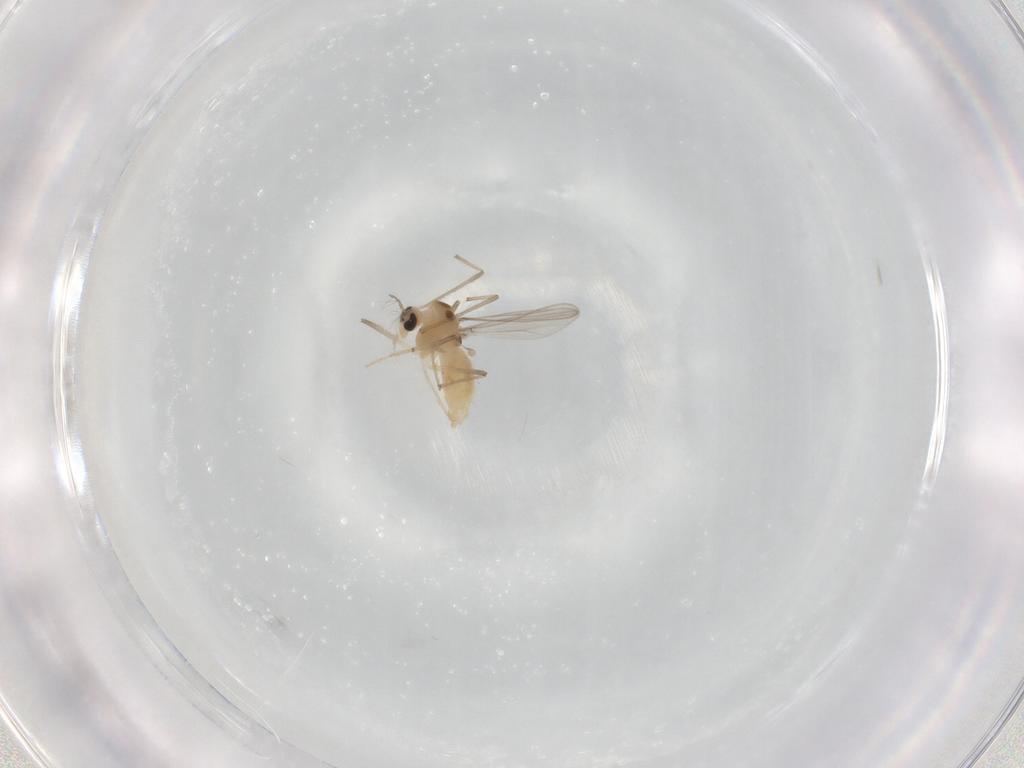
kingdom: Animalia
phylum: Arthropoda
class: Insecta
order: Diptera
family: Chironomidae
